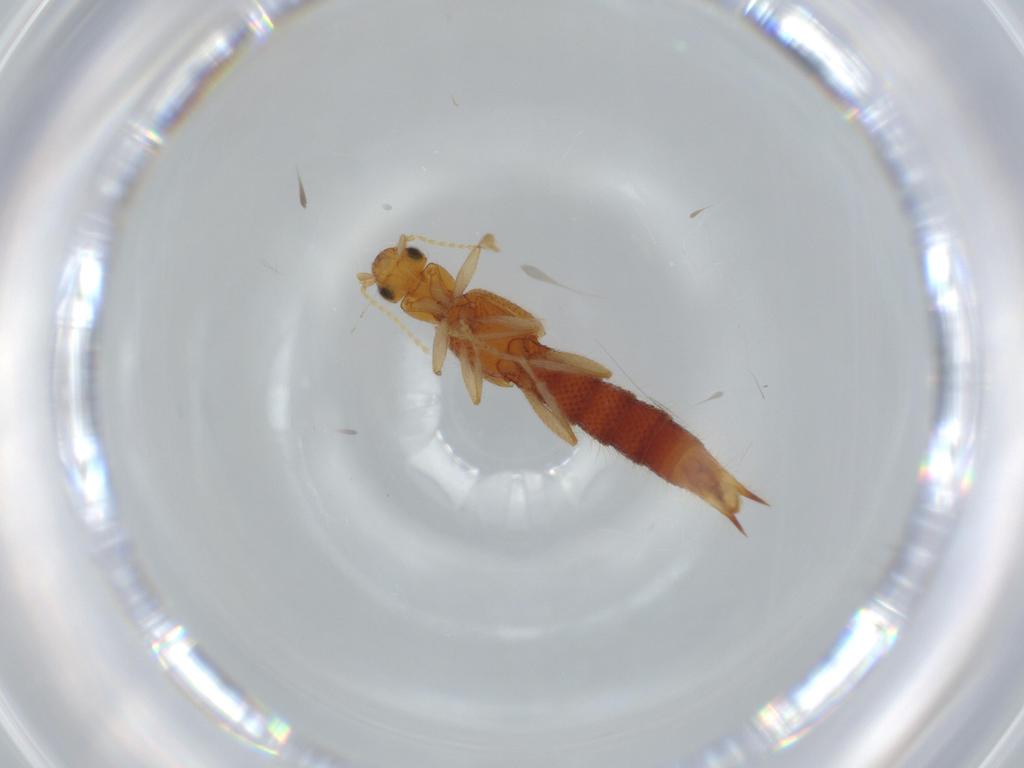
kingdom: Animalia
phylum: Arthropoda
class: Insecta
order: Coleoptera
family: Staphylinidae
